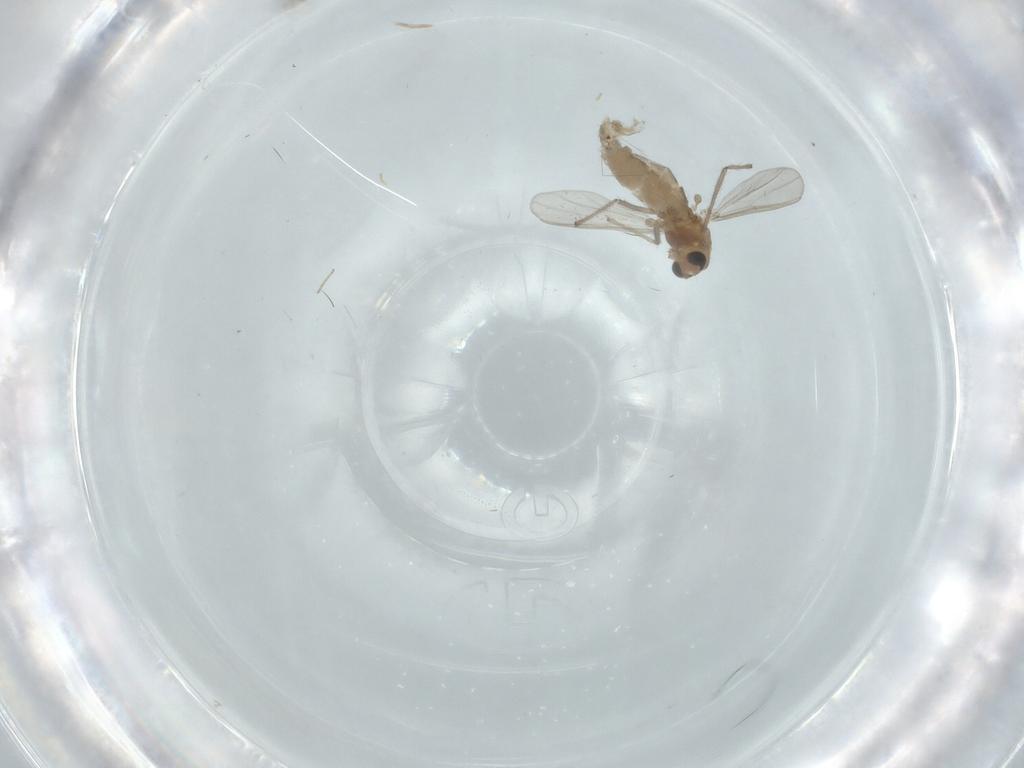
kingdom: Animalia
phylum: Arthropoda
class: Insecta
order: Diptera
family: Chironomidae
